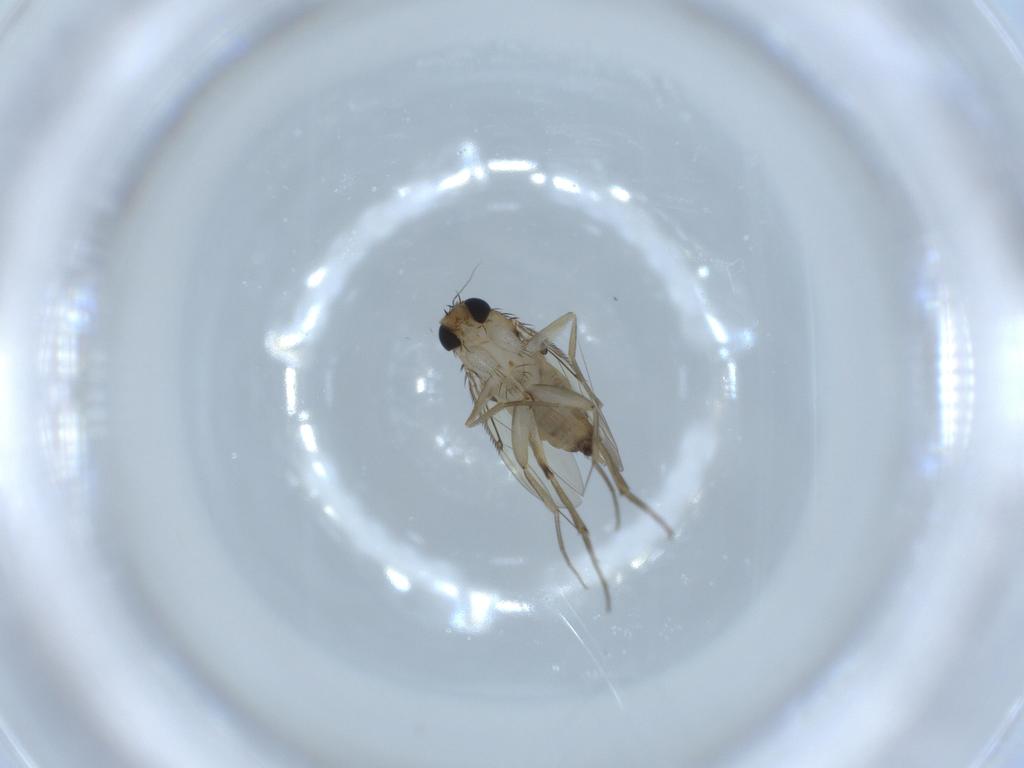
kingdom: Animalia
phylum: Arthropoda
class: Insecta
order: Diptera
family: Phoridae
